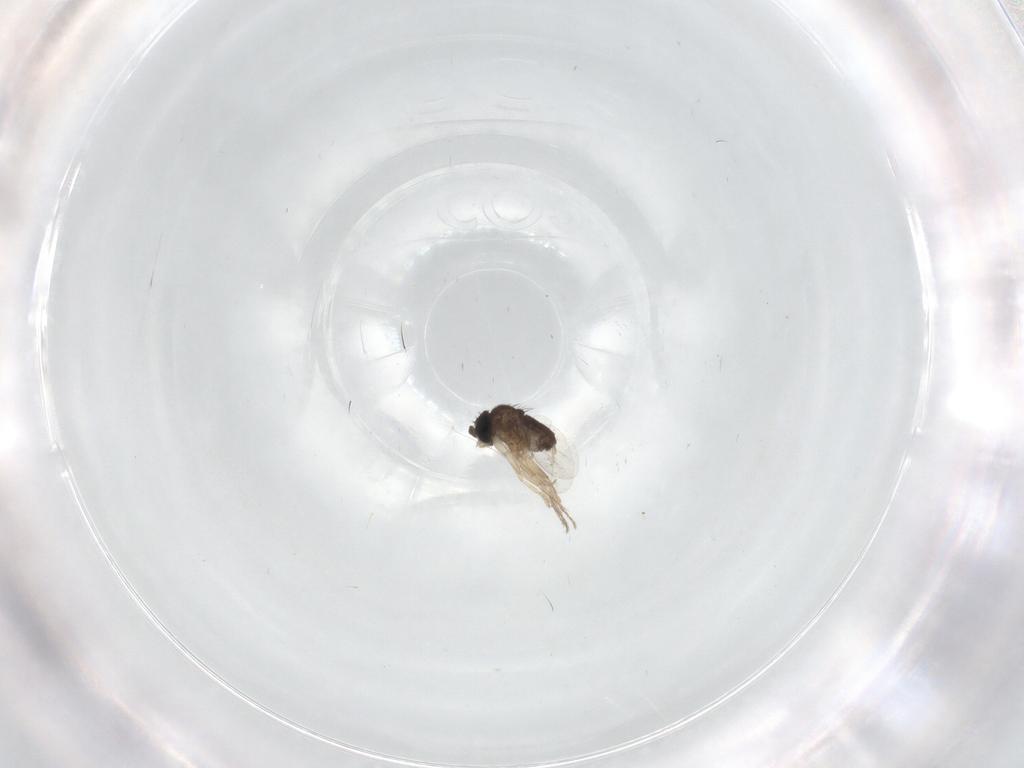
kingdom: Animalia
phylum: Arthropoda
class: Insecta
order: Diptera
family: Phoridae
